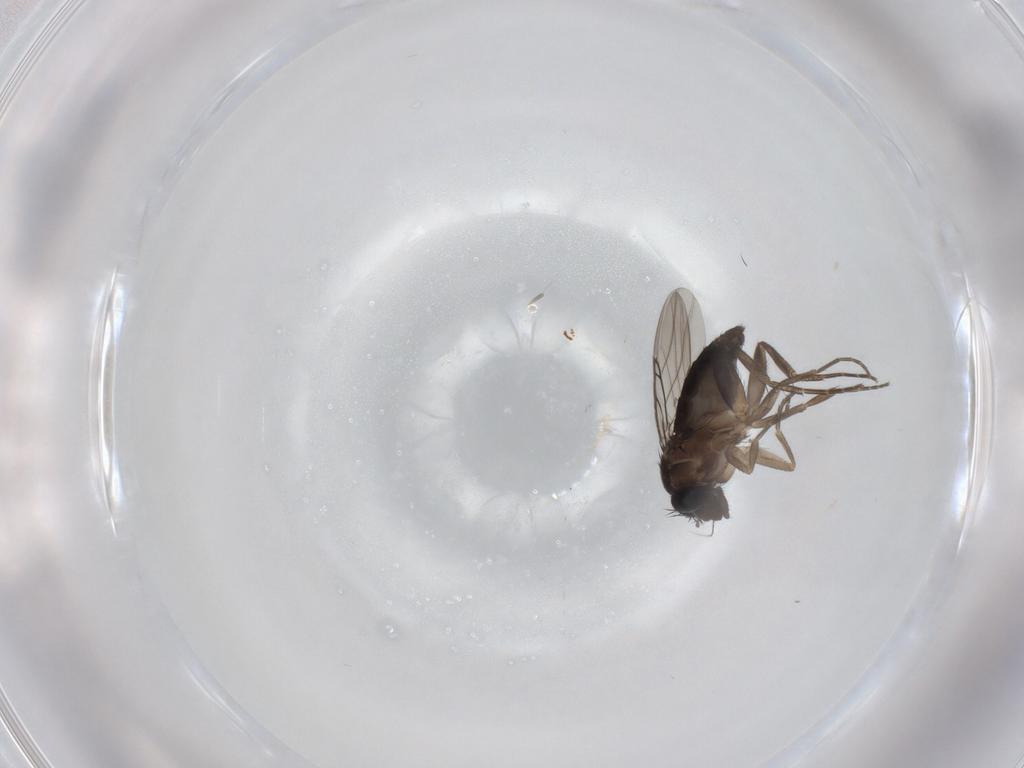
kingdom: Animalia
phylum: Arthropoda
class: Insecta
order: Diptera
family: Phoridae
